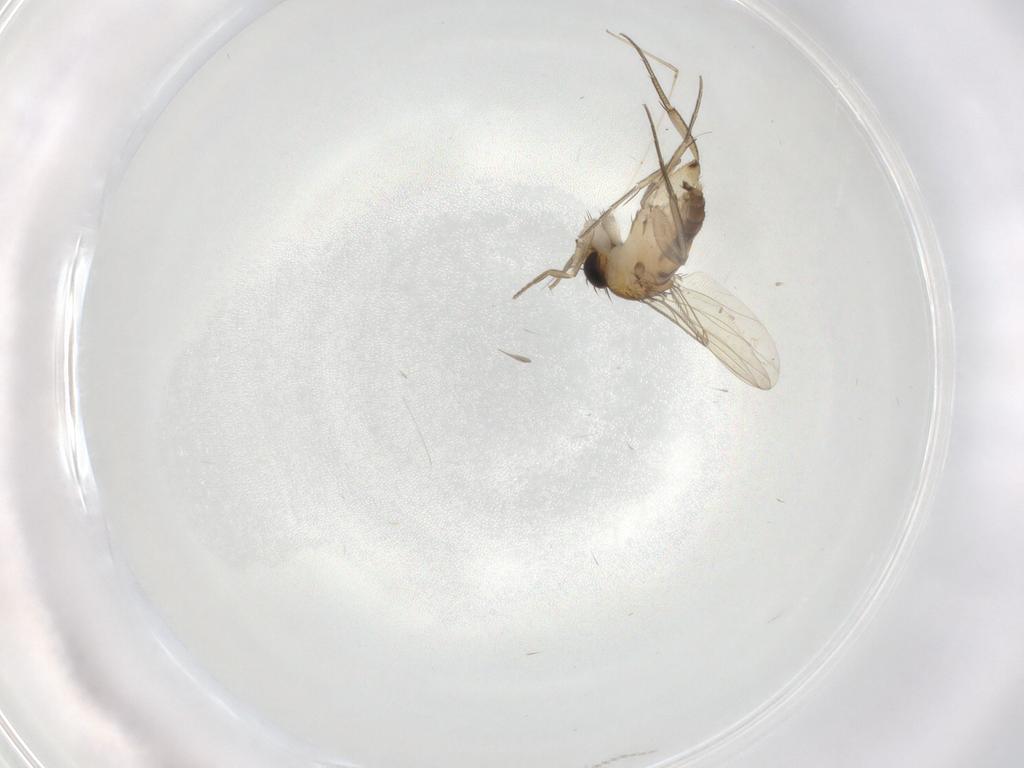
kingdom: Animalia
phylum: Arthropoda
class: Insecta
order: Diptera
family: Phoridae
